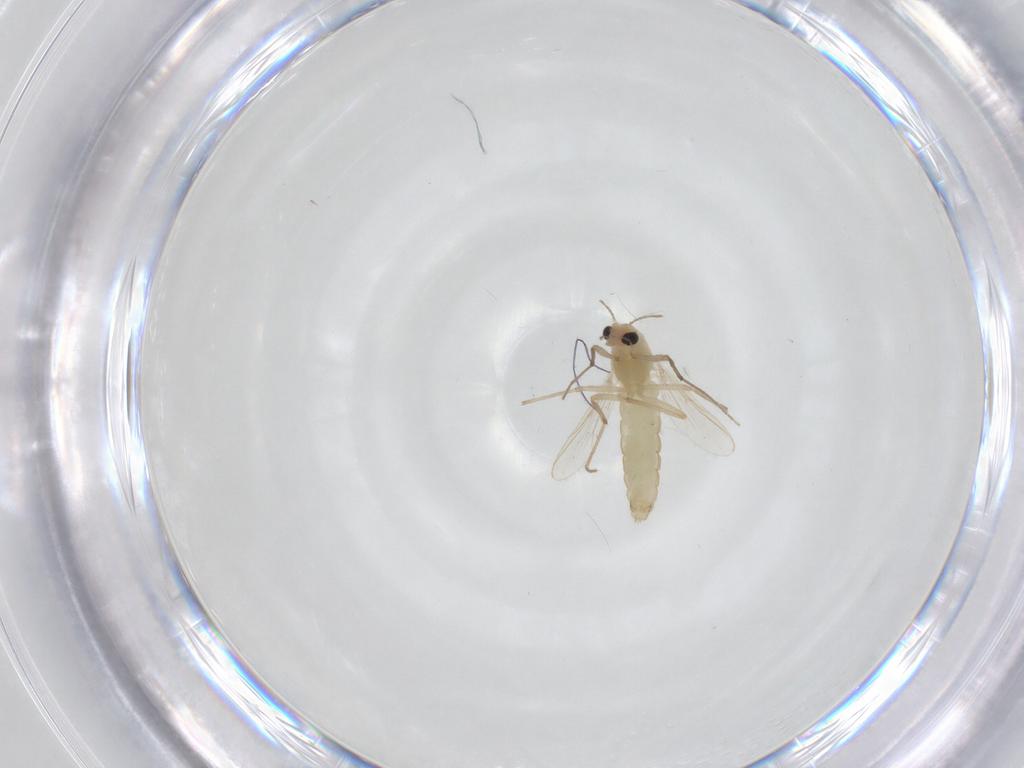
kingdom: Animalia
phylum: Arthropoda
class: Insecta
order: Diptera
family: Chironomidae
